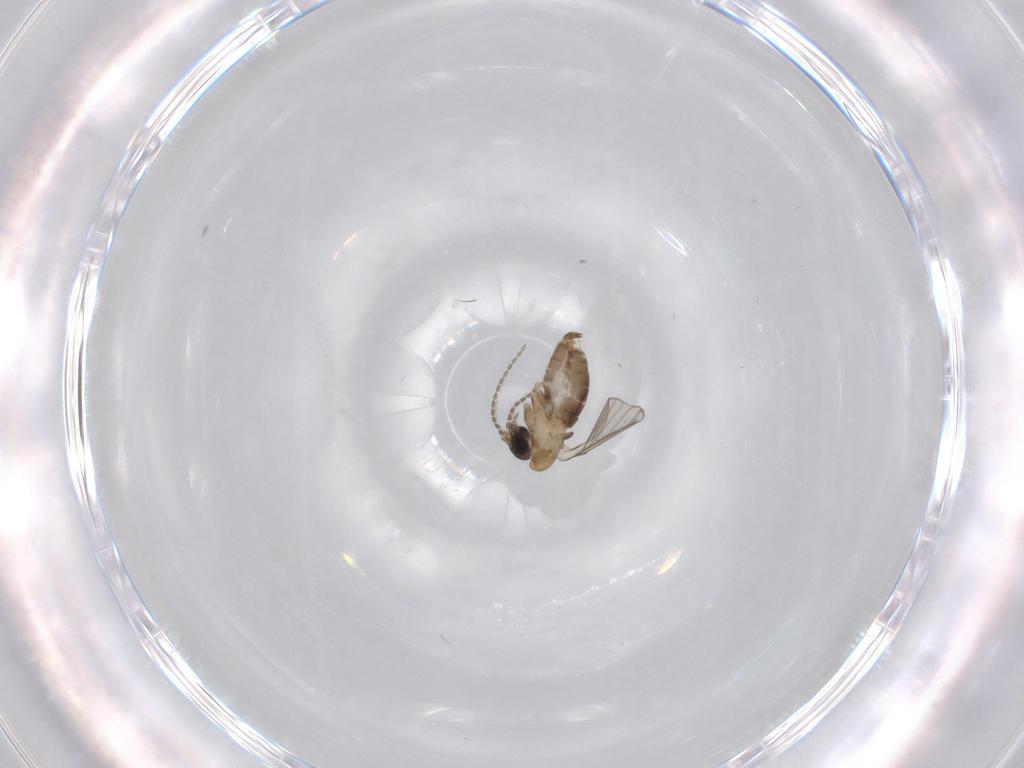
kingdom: Animalia
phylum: Arthropoda
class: Insecta
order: Diptera
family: Psychodidae
